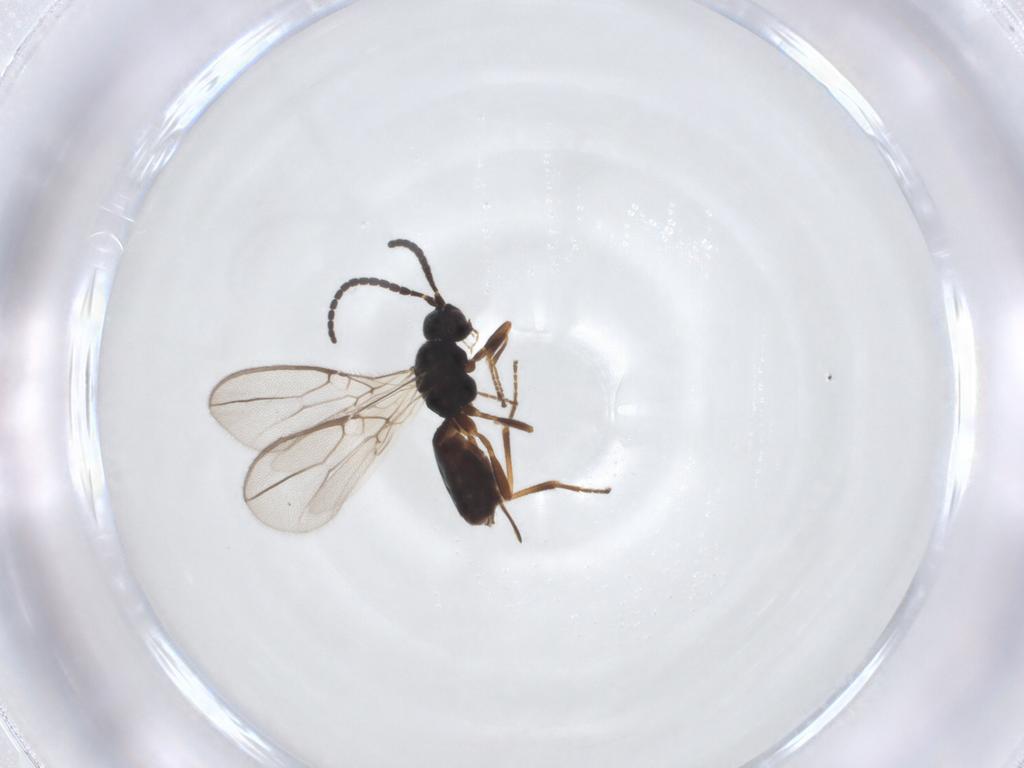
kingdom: Animalia
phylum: Arthropoda
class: Insecta
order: Hymenoptera
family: Braconidae
